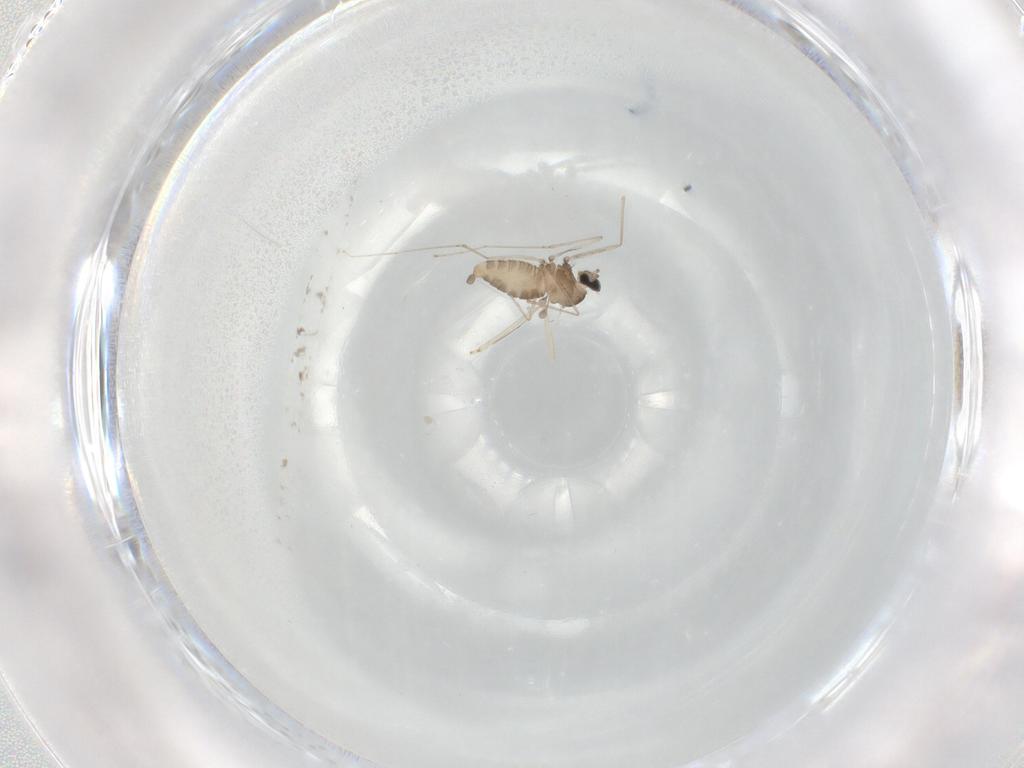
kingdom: Animalia
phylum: Arthropoda
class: Insecta
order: Diptera
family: Cecidomyiidae
